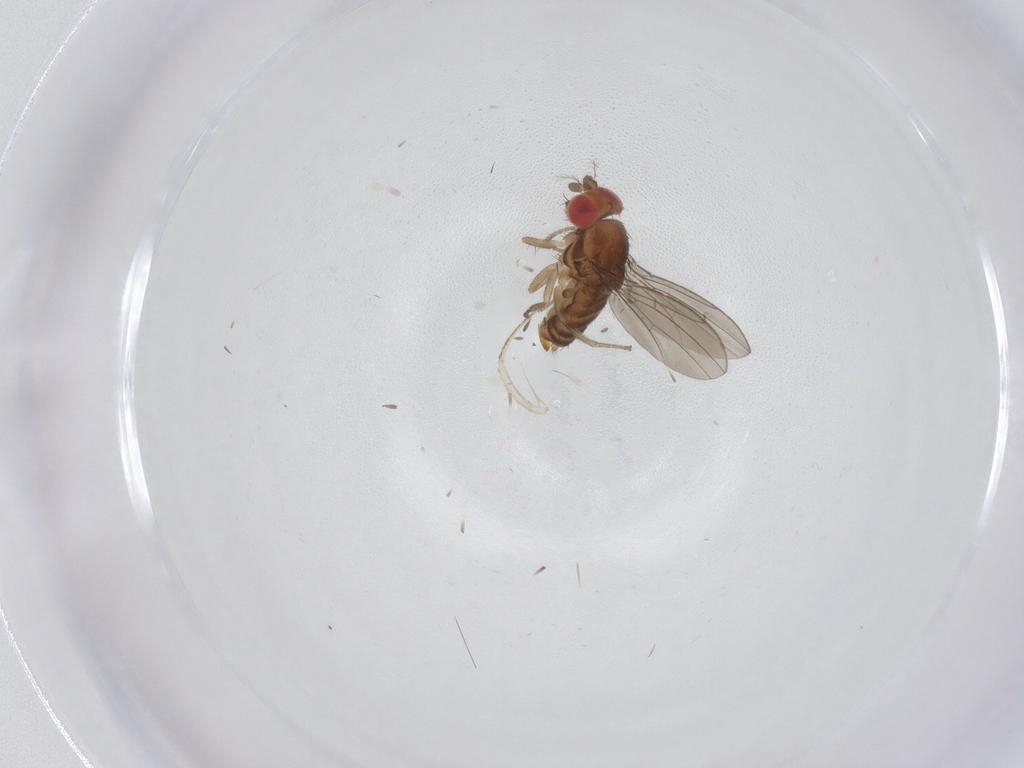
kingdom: Animalia
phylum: Arthropoda
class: Insecta
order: Diptera
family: Drosophilidae
